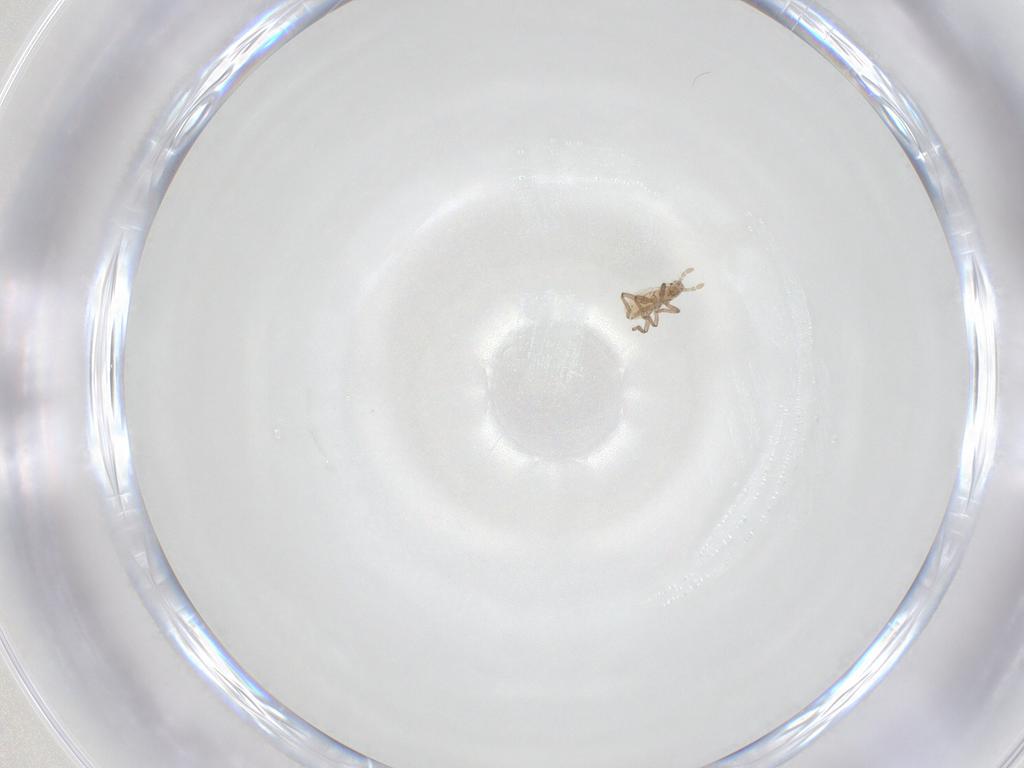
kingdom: Animalia
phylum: Arthropoda
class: Insecta
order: Hemiptera
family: Aphididae
